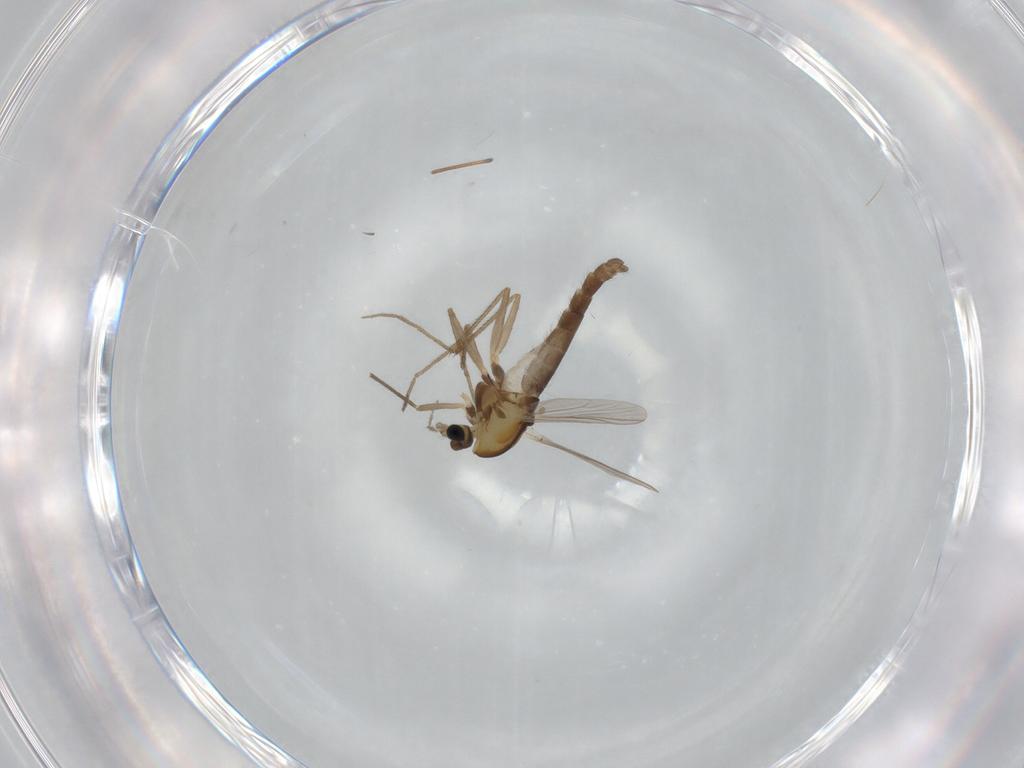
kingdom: Animalia
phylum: Arthropoda
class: Insecta
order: Diptera
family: Chironomidae
